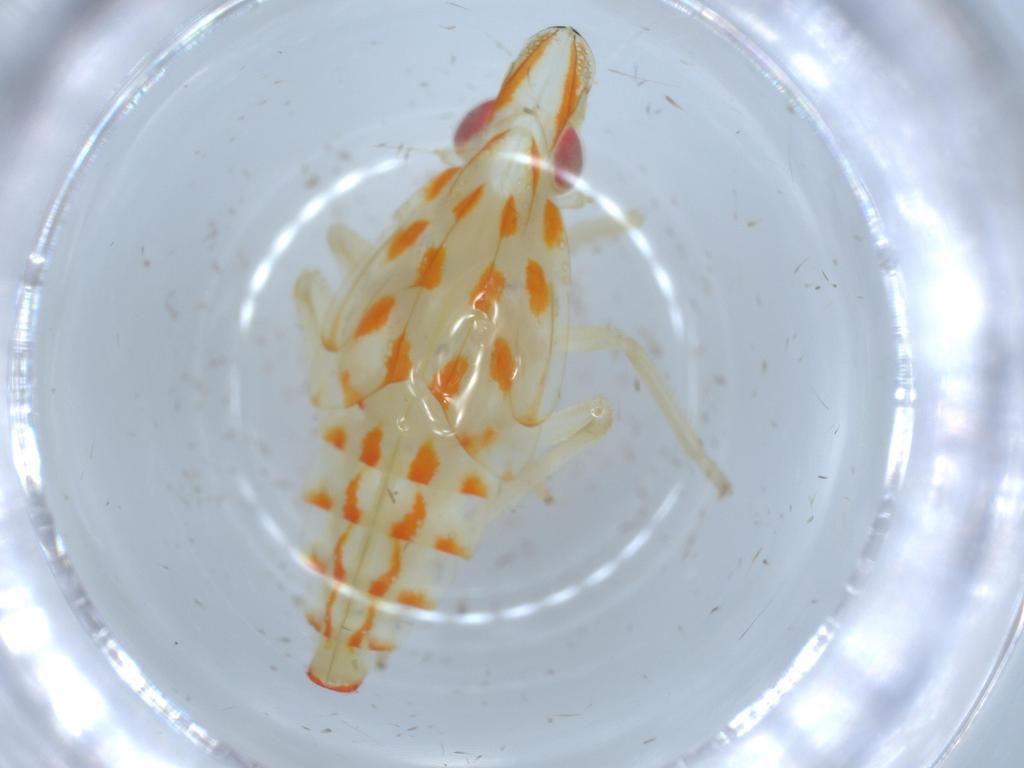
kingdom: Animalia
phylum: Arthropoda
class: Insecta
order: Hemiptera
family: Tropiduchidae
